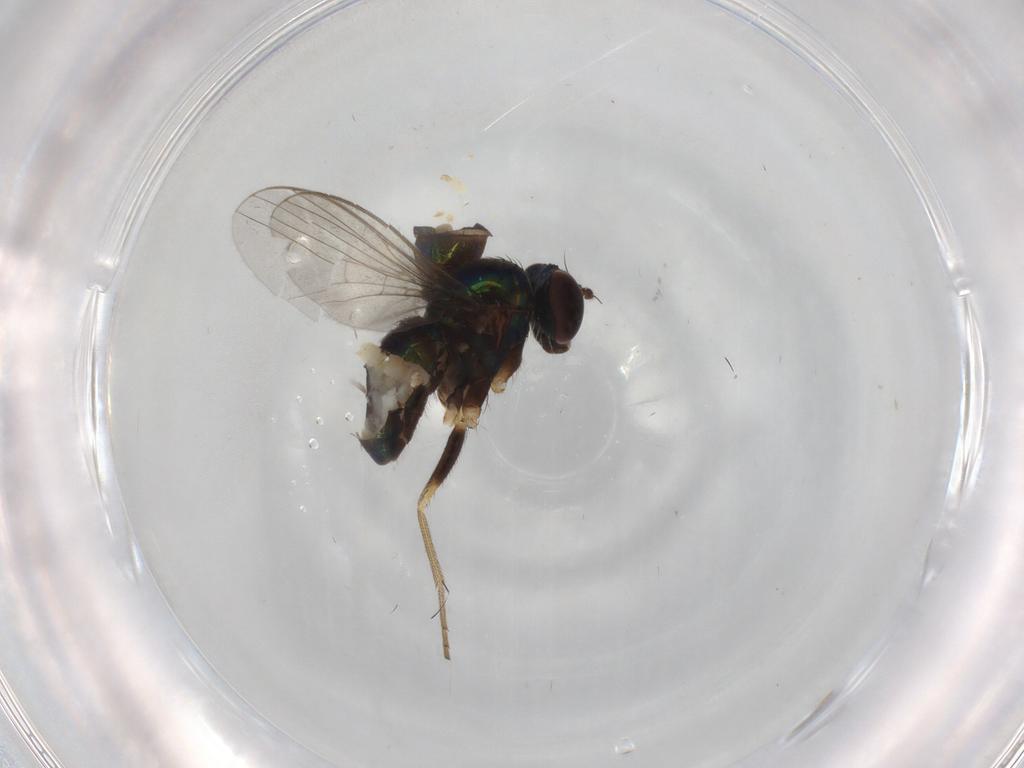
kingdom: Animalia
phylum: Arthropoda
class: Insecta
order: Diptera
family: Dolichopodidae
